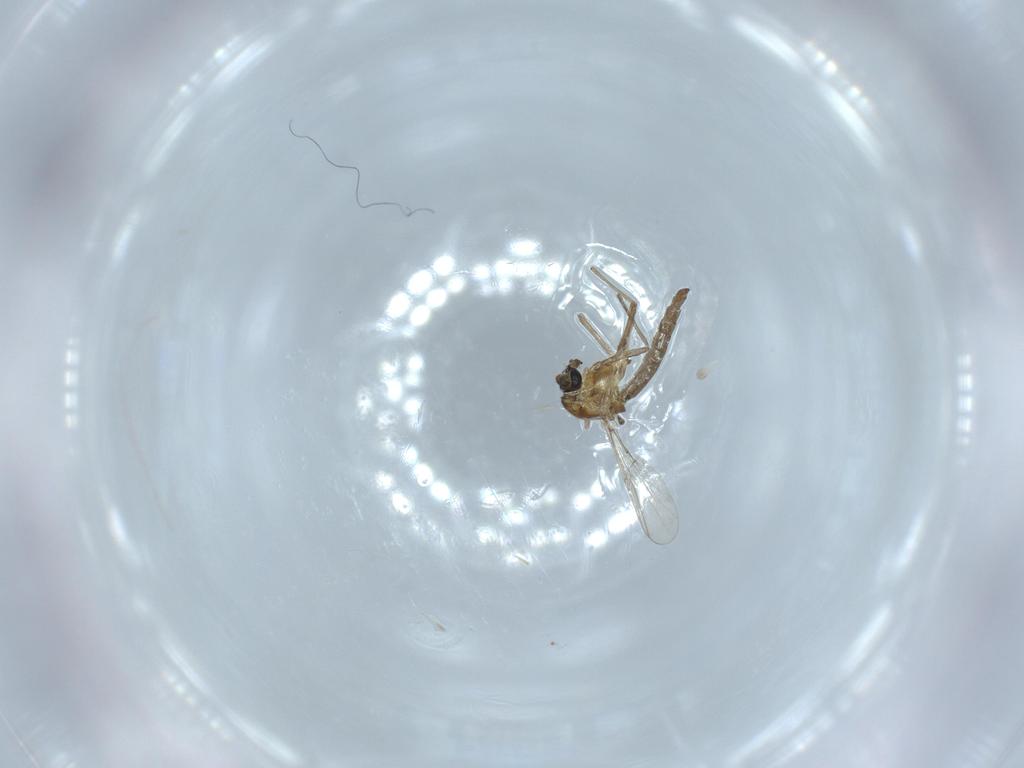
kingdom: Animalia
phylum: Arthropoda
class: Insecta
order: Diptera
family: Chironomidae
